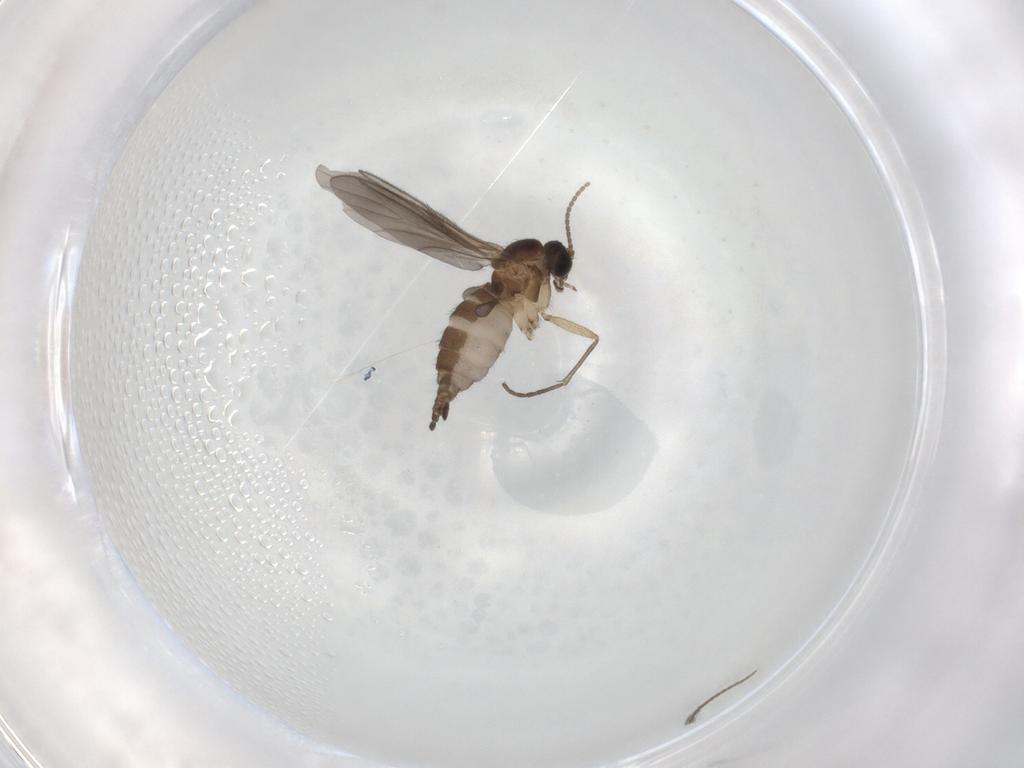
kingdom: Animalia
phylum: Arthropoda
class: Insecta
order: Diptera
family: Sciaridae
